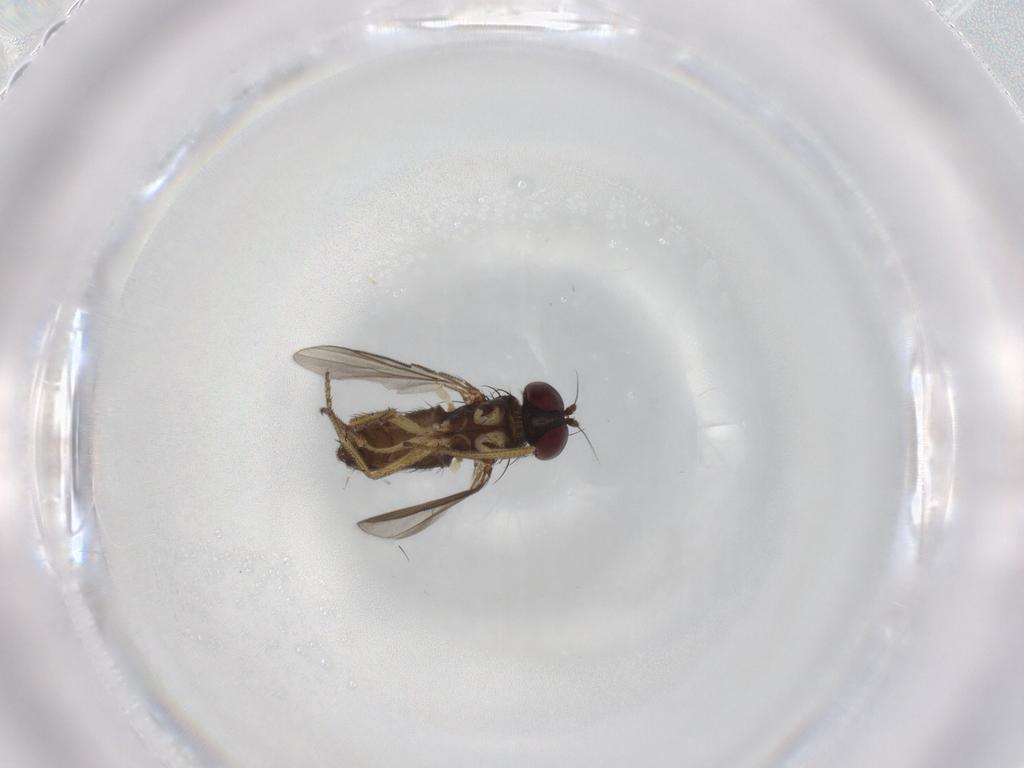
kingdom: Animalia
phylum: Arthropoda
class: Insecta
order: Diptera
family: Dolichopodidae
